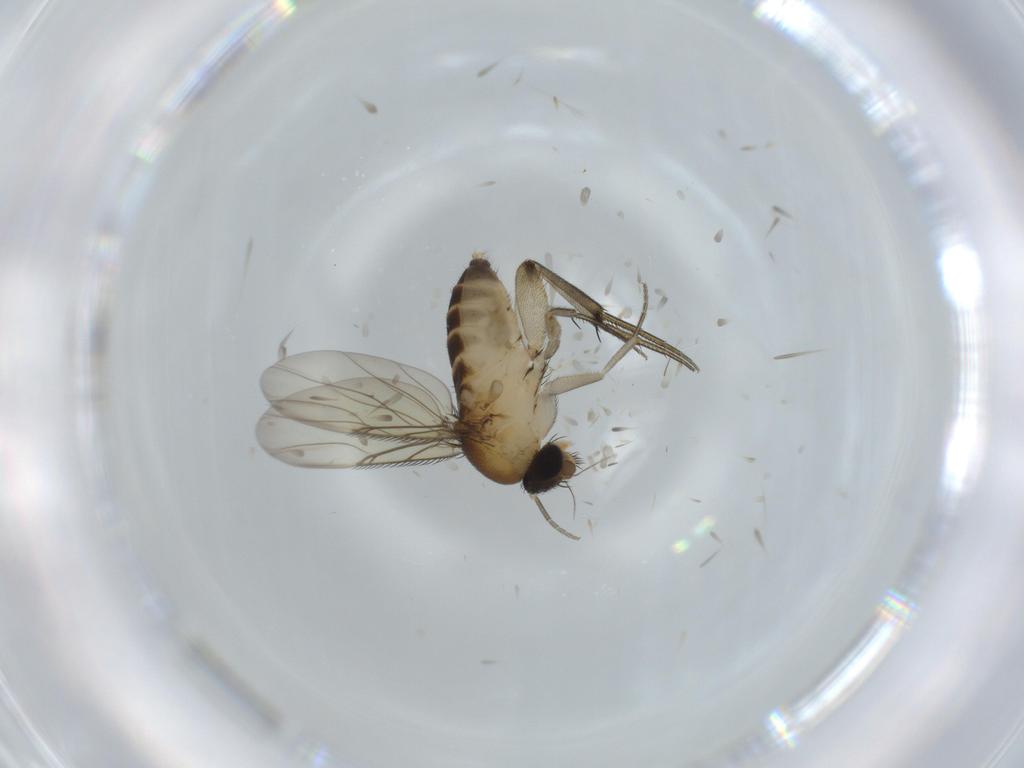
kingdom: Animalia
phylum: Arthropoda
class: Insecta
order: Diptera
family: Phoridae
